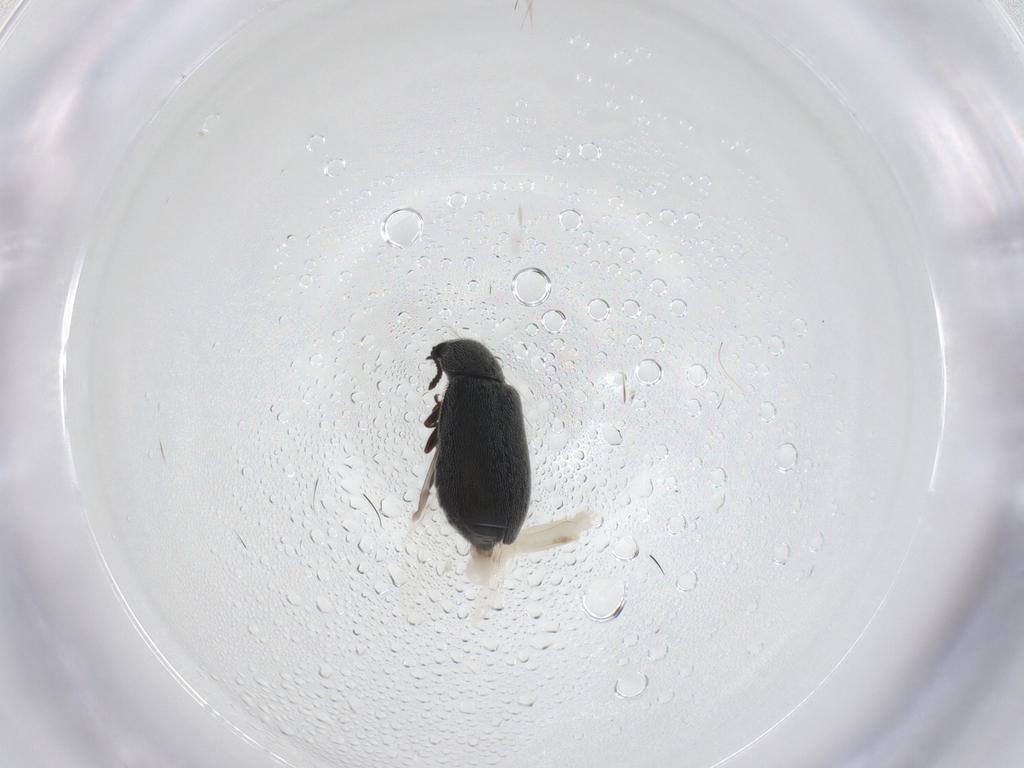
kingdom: Animalia
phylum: Arthropoda
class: Insecta
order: Coleoptera
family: Melyridae
